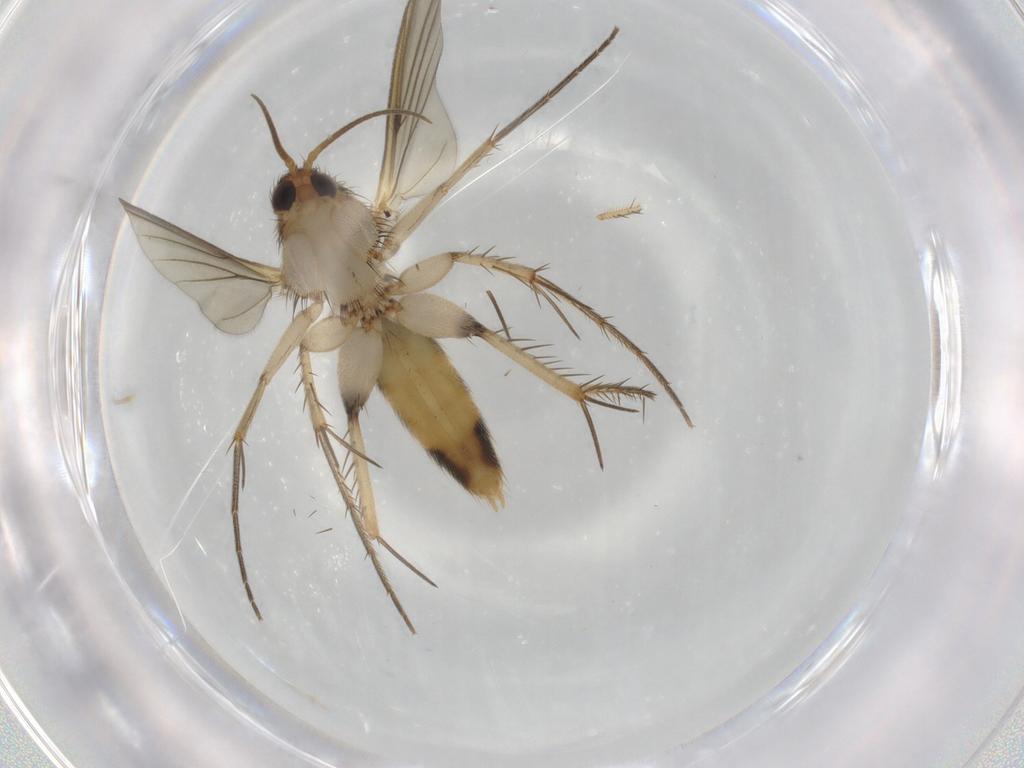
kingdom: Animalia
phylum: Arthropoda
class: Insecta
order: Diptera
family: Mycetophilidae
